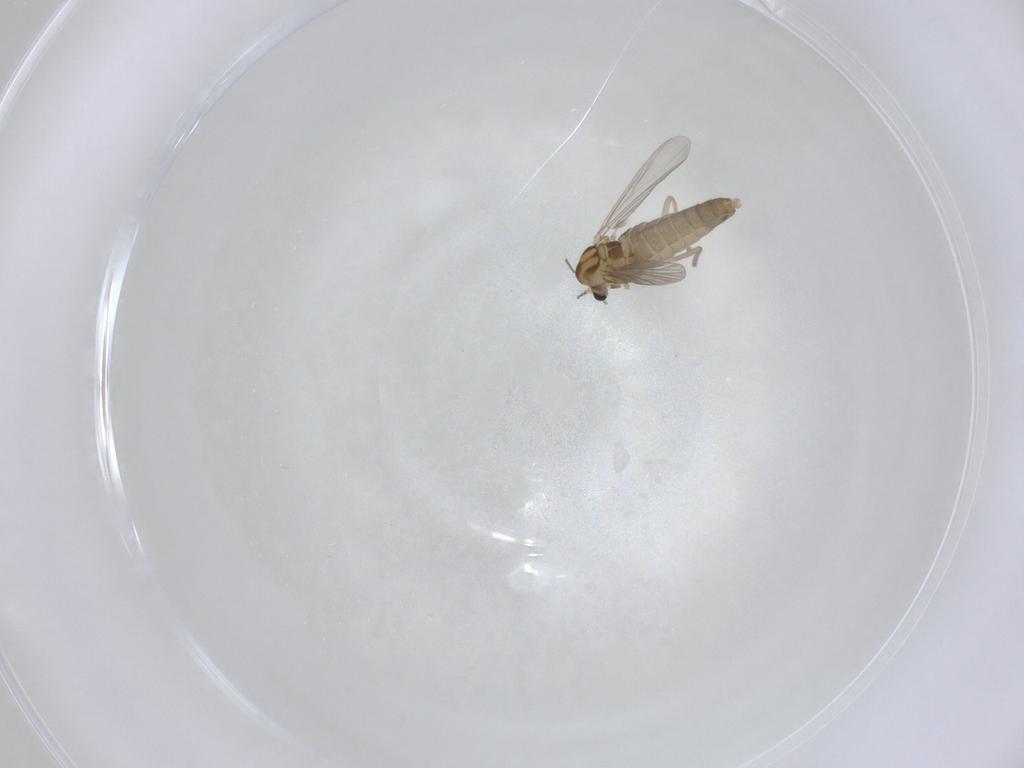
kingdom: Animalia
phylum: Arthropoda
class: Insecta
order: Diptera
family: Chironomidae
